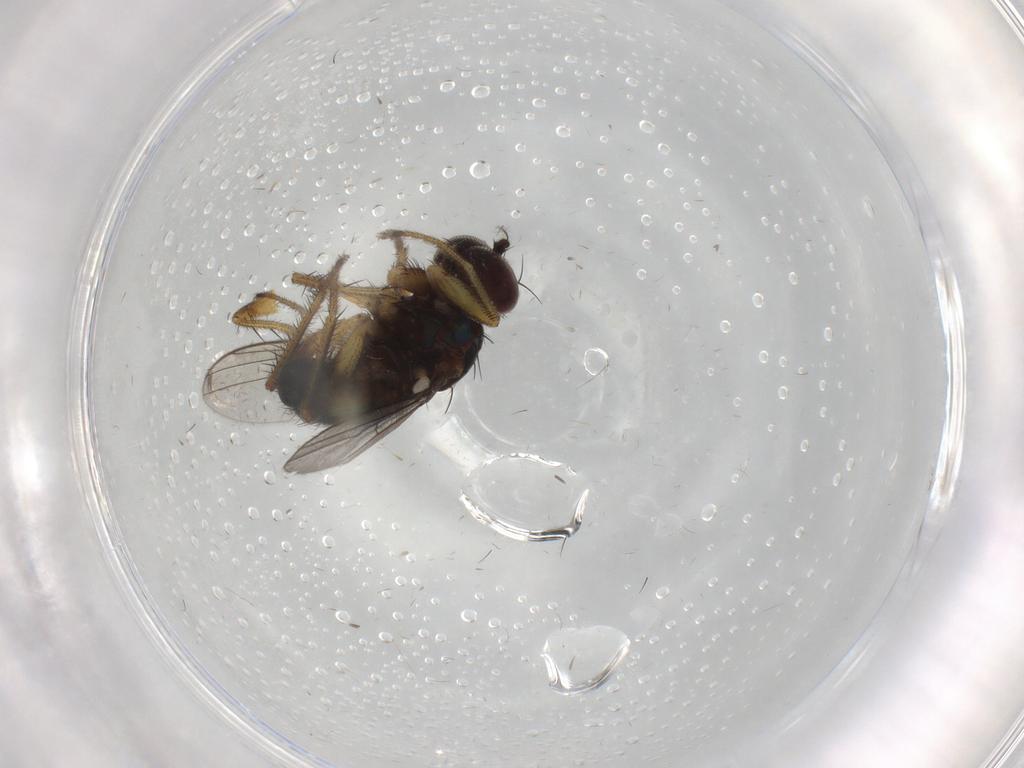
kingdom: Animalia
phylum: Arthropoda
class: Insecta
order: Diptera
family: Dolichopodidae
